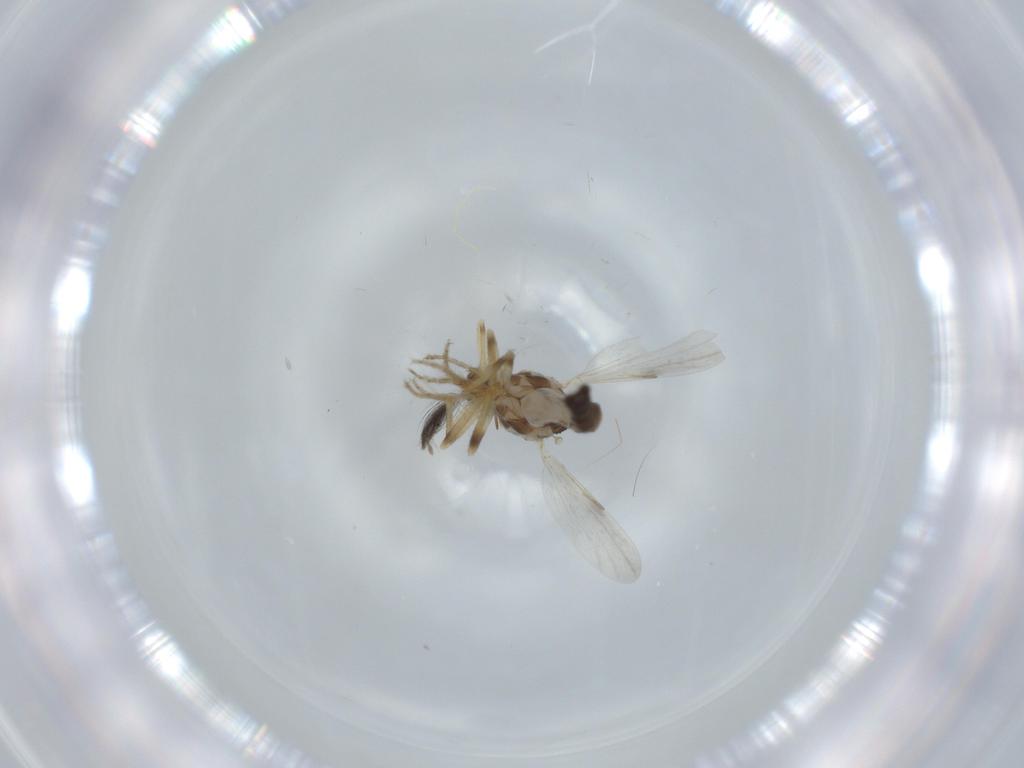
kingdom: Animalia
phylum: Arthropoda
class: Insecta
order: Diptera
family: Ceratopogonidae
